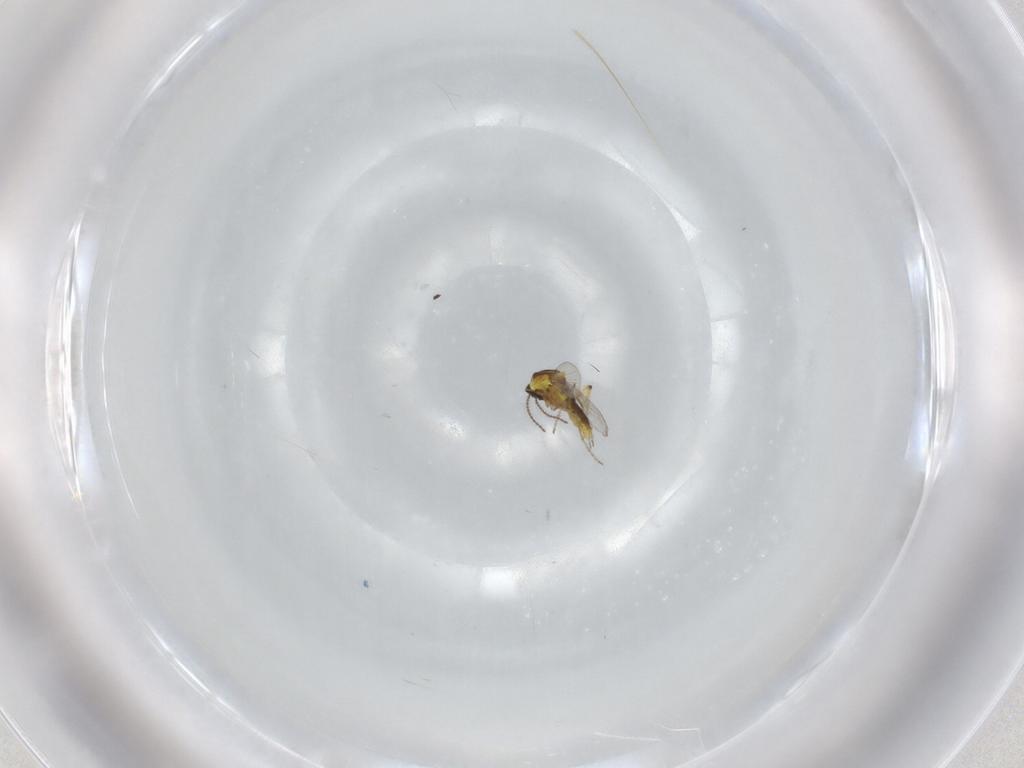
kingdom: Animalia
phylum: Arthropoda
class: Insecta
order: Diptera
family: Ceratopogonidae
